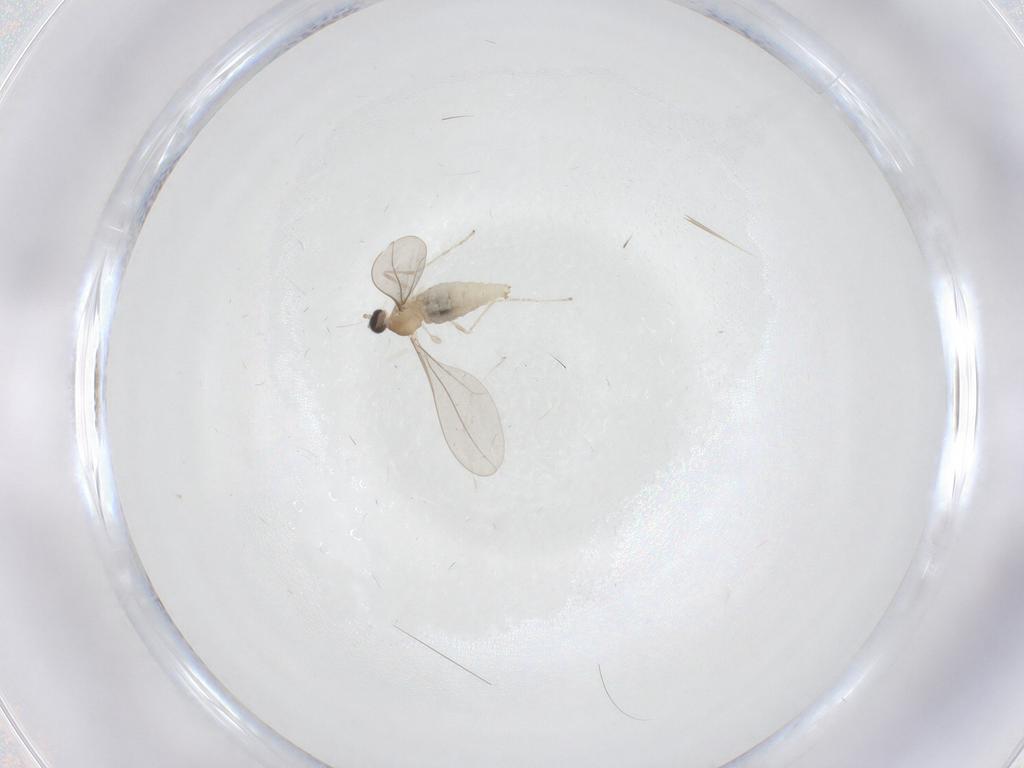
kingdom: Animalia
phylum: Arthropoda
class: Insecta
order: Diptera
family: Cecidomyiidae
